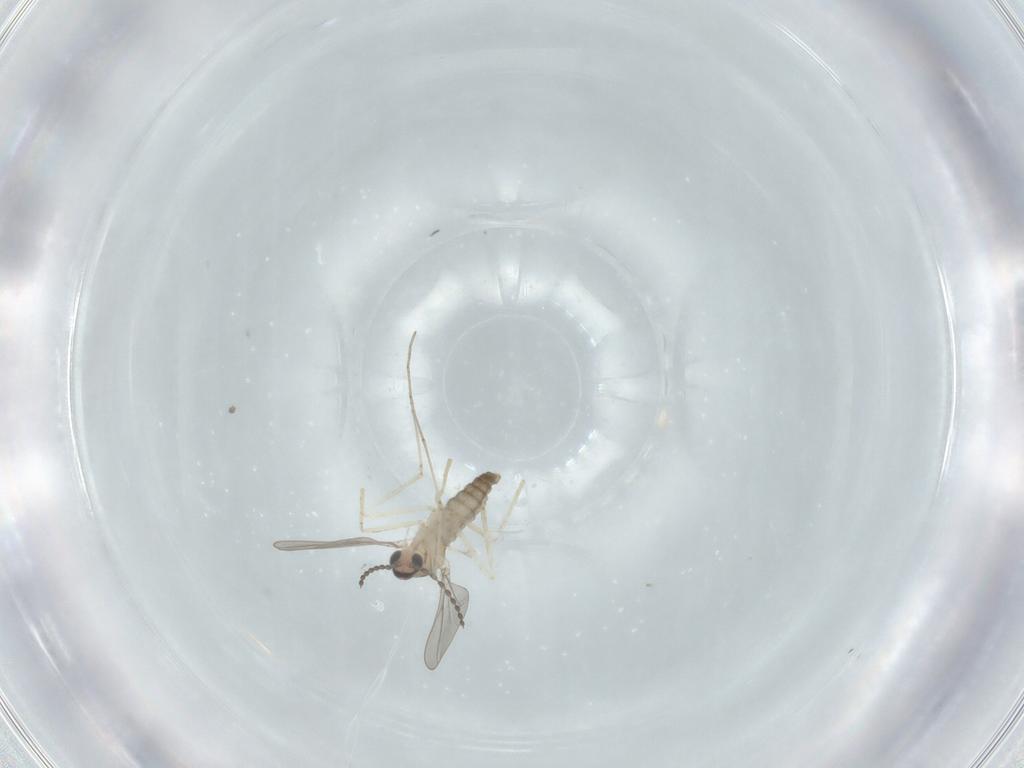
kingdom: Animalia
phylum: Arthropoda
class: Insecta
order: Diptera
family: Cecidomyiidae
